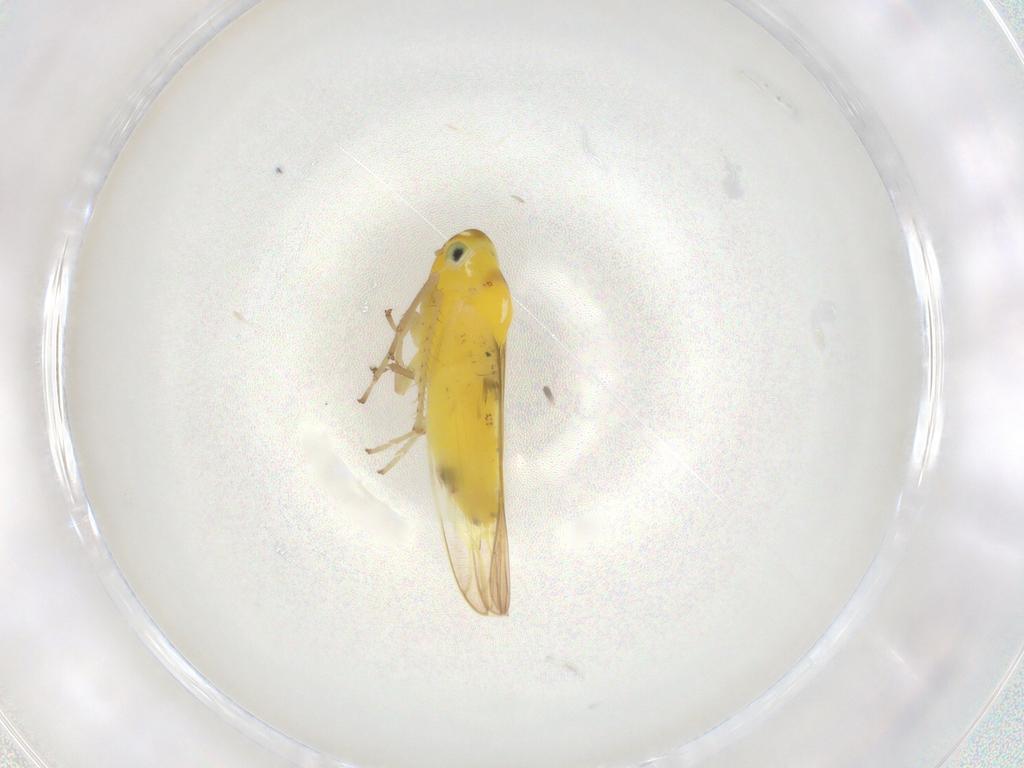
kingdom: Animalia
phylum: Arthropoda
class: Insecta
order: Hemiptera
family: Cicadellidae
